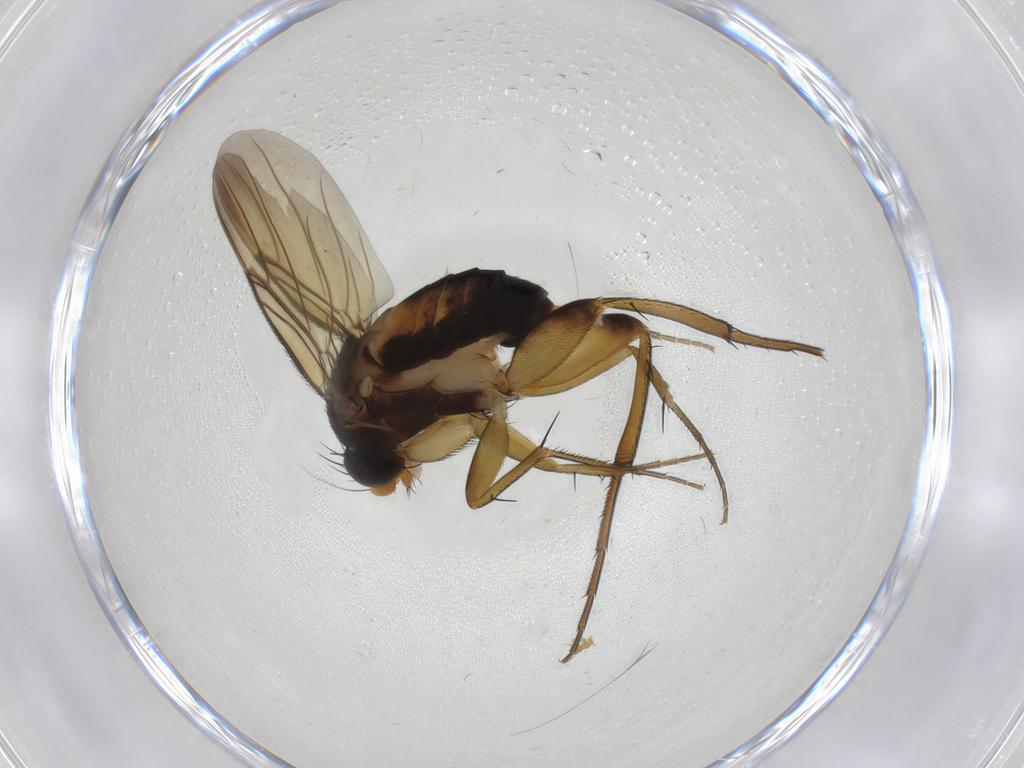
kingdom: Animalia
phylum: Arthropoda
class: Insecta
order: Diptera
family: Phoridae
